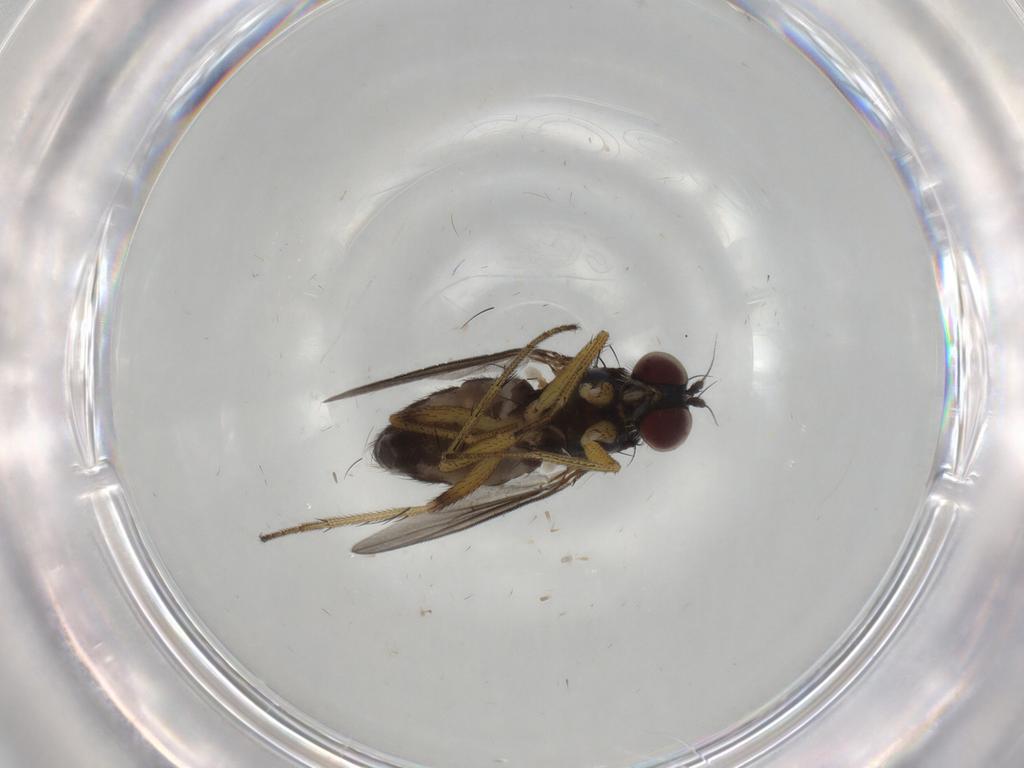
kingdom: Animalia
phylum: Arthropoda
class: Insecta
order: Diptera
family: Dolichopodidae
